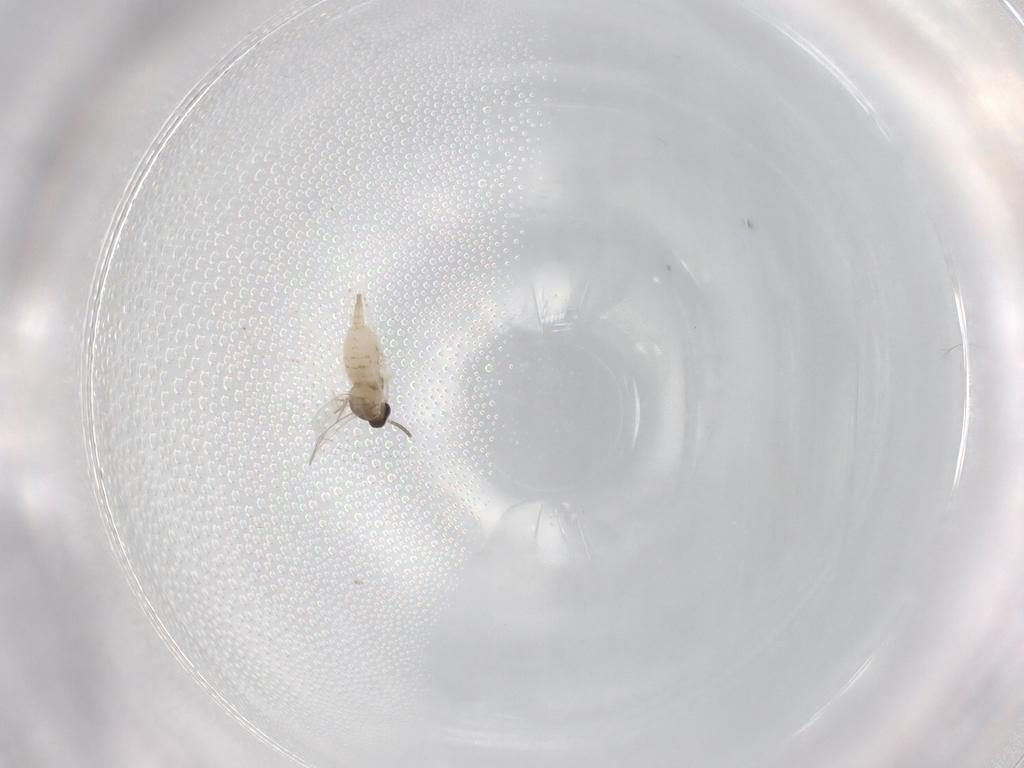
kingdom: Animalia
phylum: Arthropoda
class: Insecta
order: Diptera
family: Cecidomyiidae
